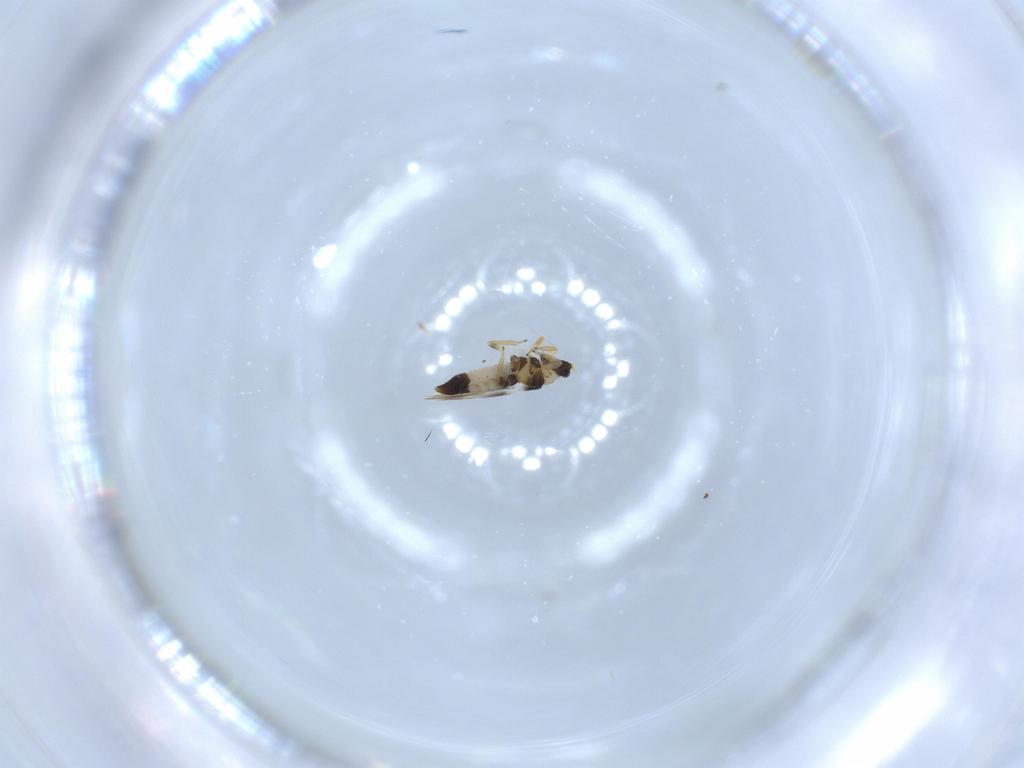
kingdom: Animalia
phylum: Arthropoda
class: Insecta
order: Thysanoptera
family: Thripidae
